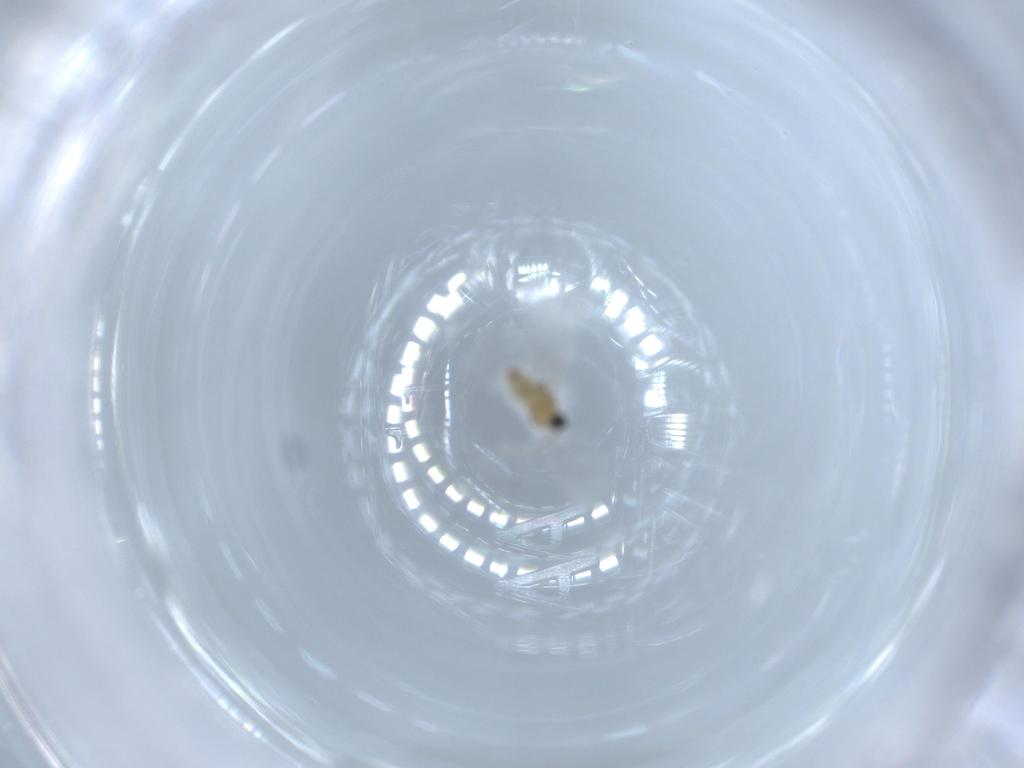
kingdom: Animalia
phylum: Arthropoda
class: Insecta
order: Diptera
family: Cecidomyiidae
